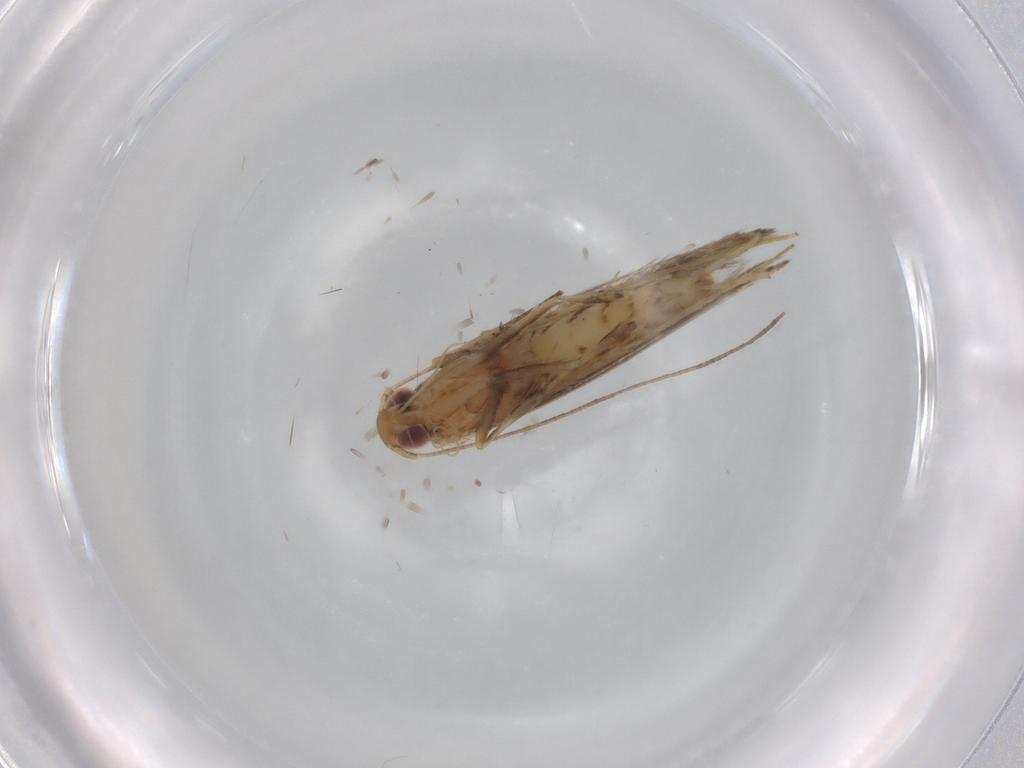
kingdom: Animalia
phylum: Arthropoda
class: Insecta
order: Lepidoptera
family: Gracillariidae
